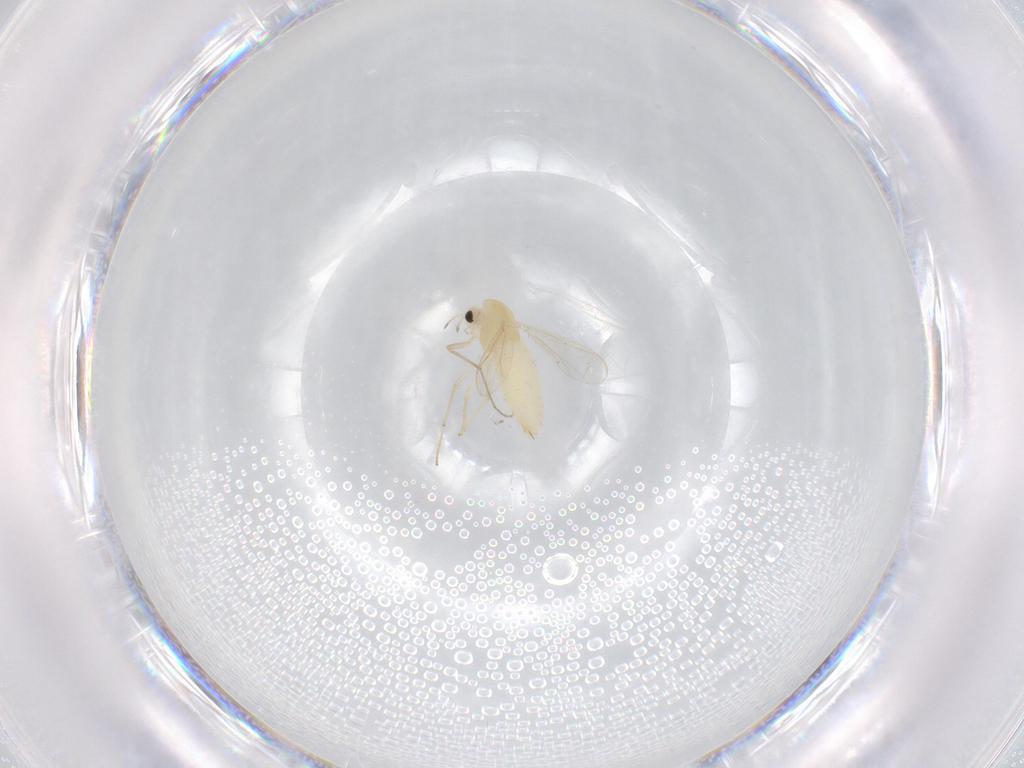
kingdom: Animalia
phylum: Arthropoda
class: Insecta
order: Diptera
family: Chironomidae
